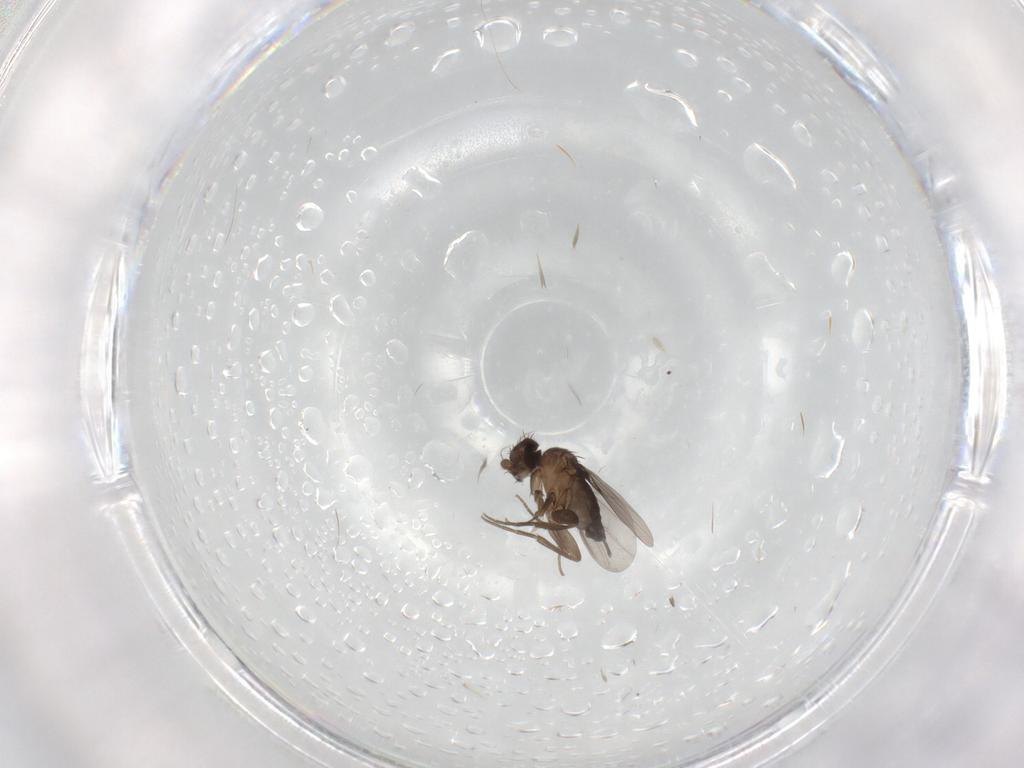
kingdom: Animalia
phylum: Arthropoda
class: Insecta
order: Diptera
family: Phoridae
